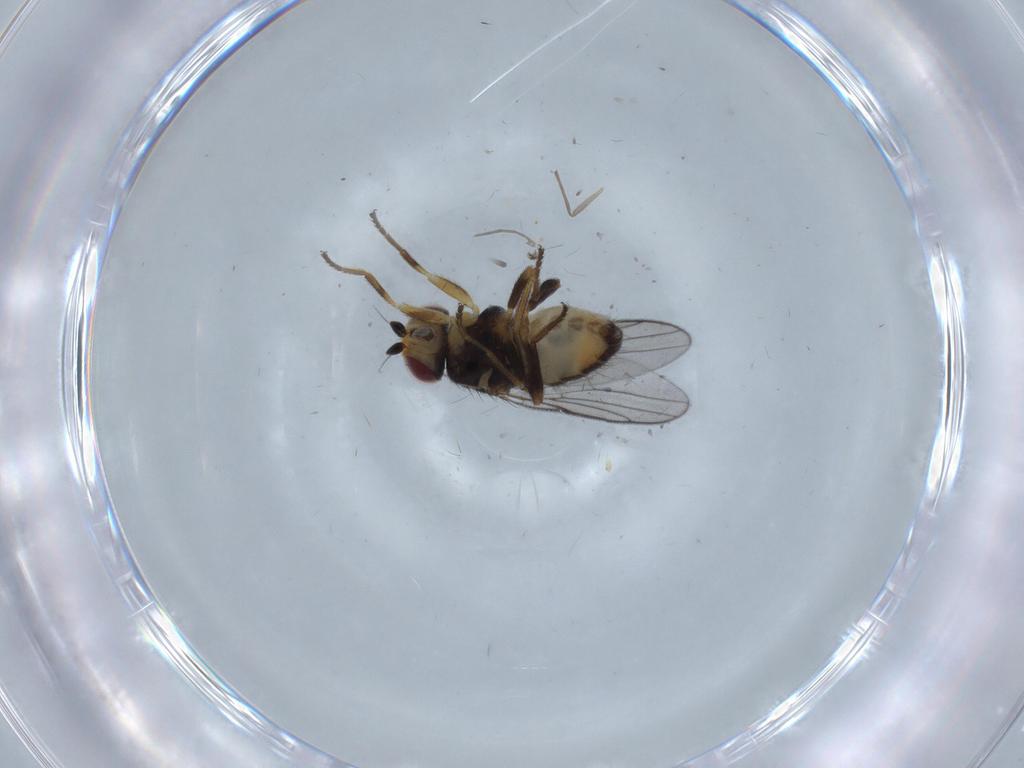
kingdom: Animalia
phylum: Arthropoda
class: Insecta
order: Diptera
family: Chloropidae
